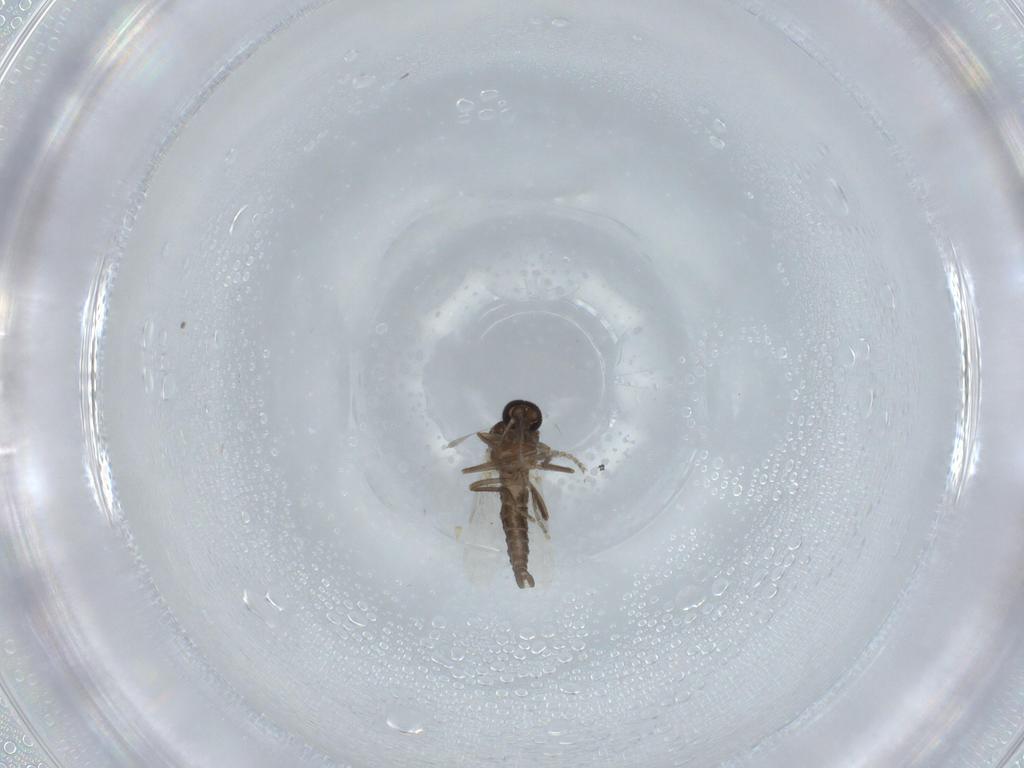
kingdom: Animalia
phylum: Arthropoda
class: Insecta
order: Diptera
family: Ceratopogonidae
